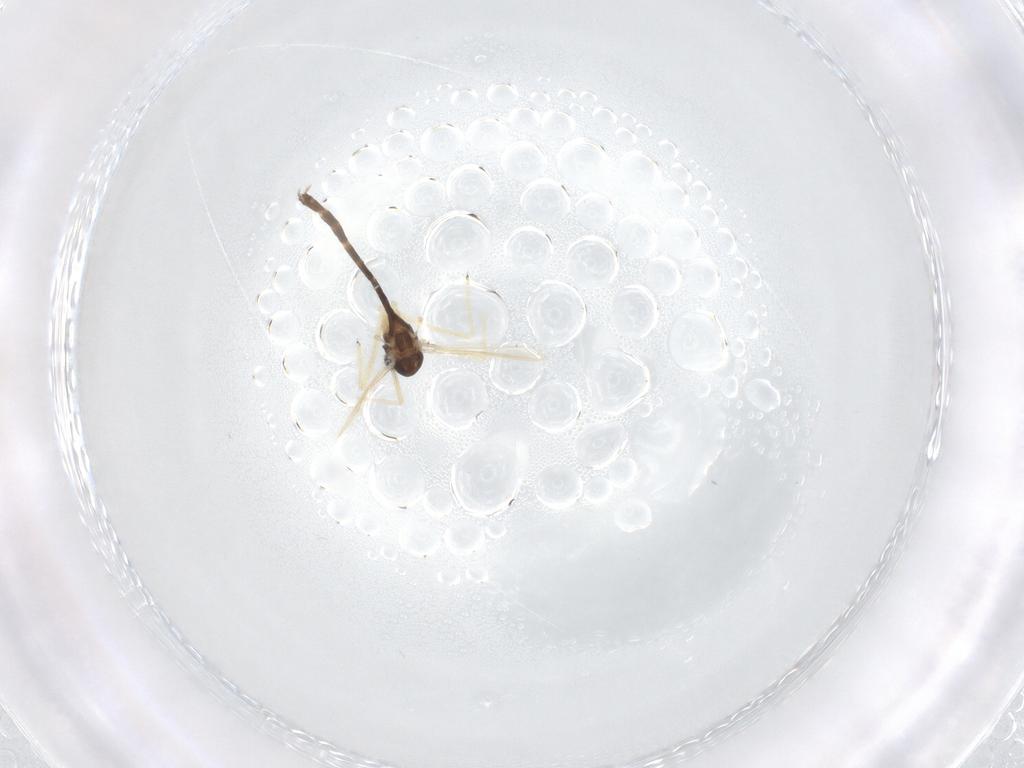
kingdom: Animalia
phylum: Arthropoda
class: Insecta
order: Diptera
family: Chironomidae
